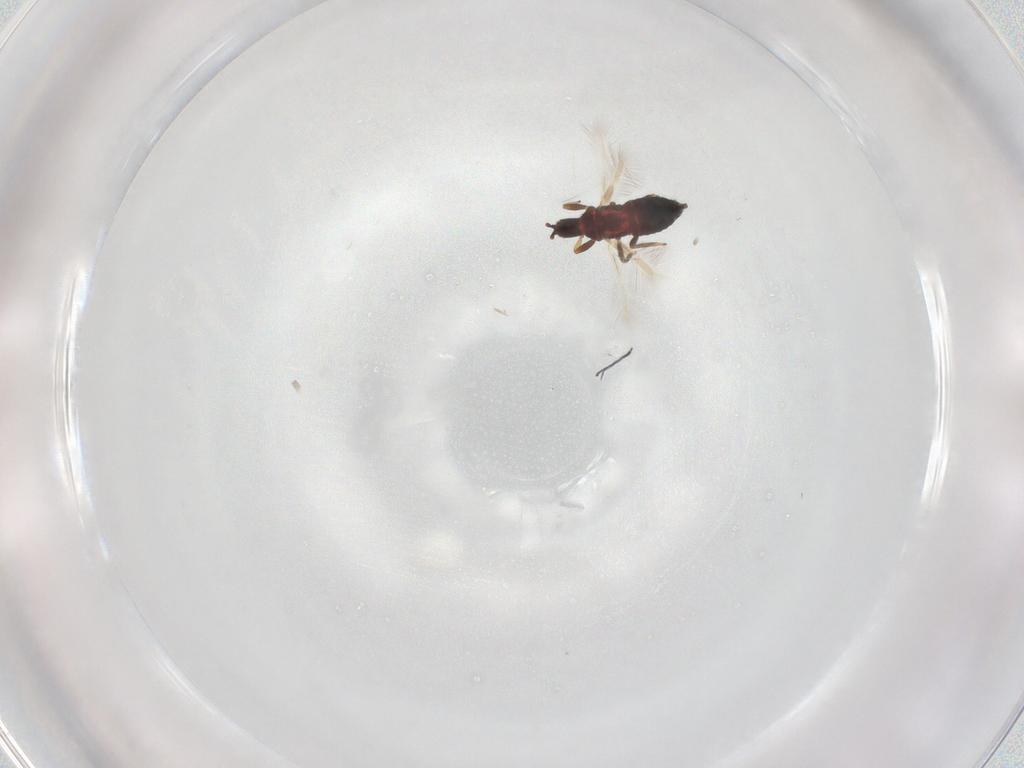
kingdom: Animalia
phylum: Arthropoda
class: Insecta
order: Thysanoptera
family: Phlaeothripidae
